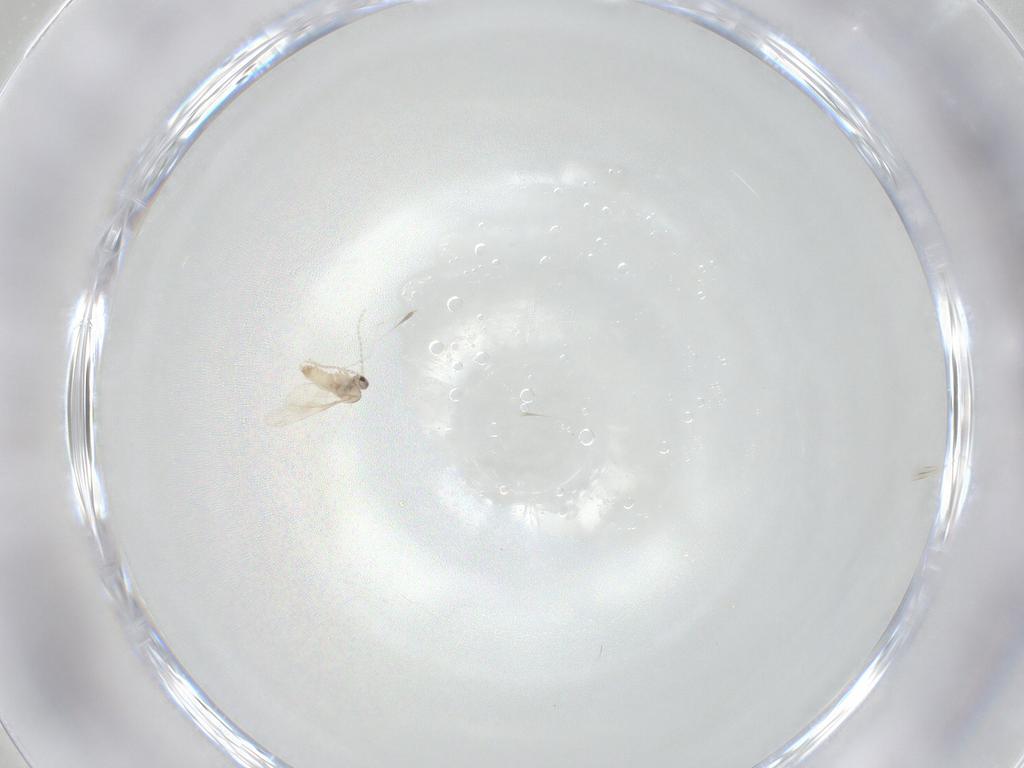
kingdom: Animalia
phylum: Arthropoda
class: Insecta
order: Diptera
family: Cecidomyiidae
